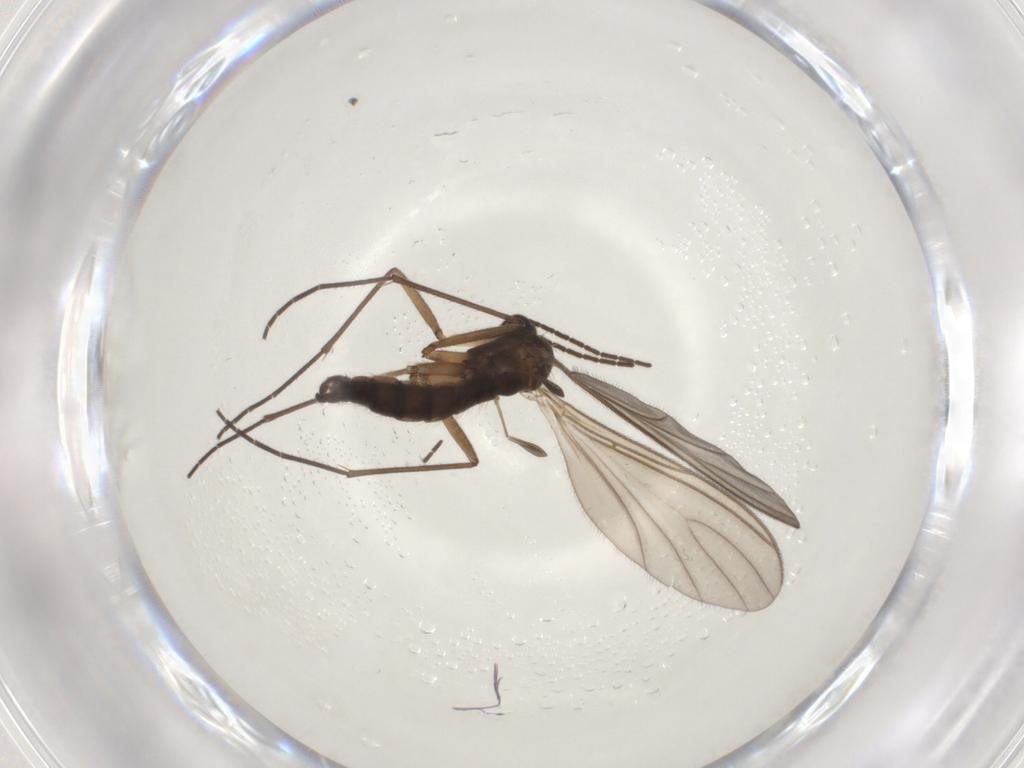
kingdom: Animalia
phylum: Arthropoda
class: Insecta
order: Diptera
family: Sciaridae
